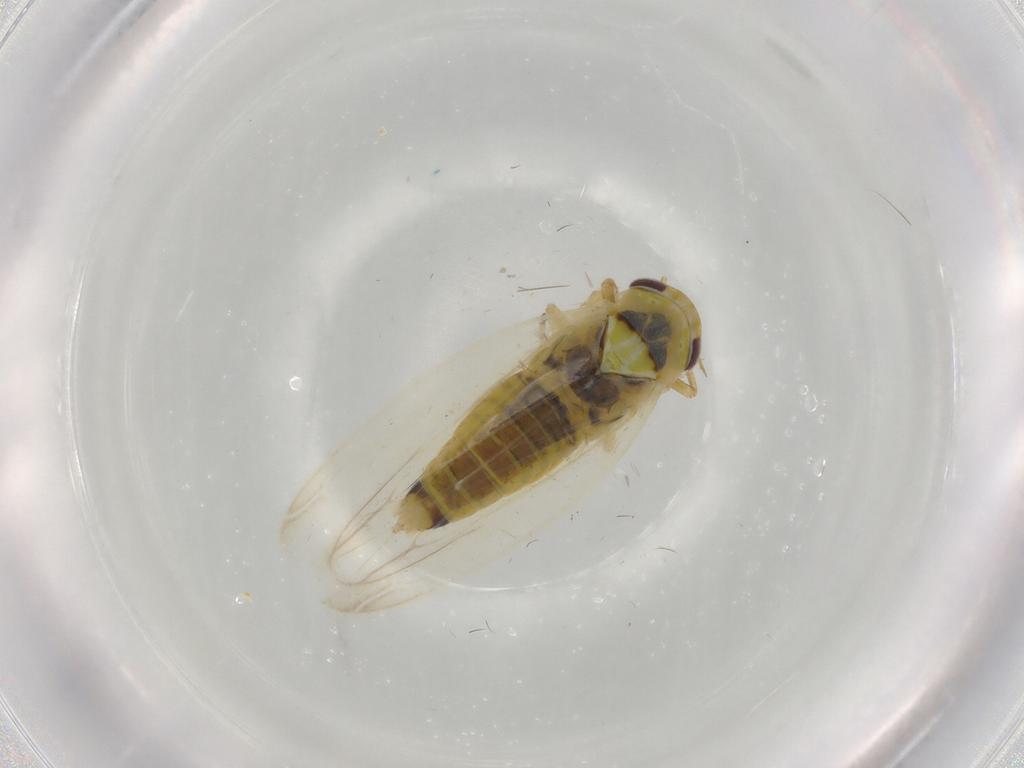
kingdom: Animalia
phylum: Arthropoda
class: Insecta
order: Hemiptera
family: Cicadellidae
